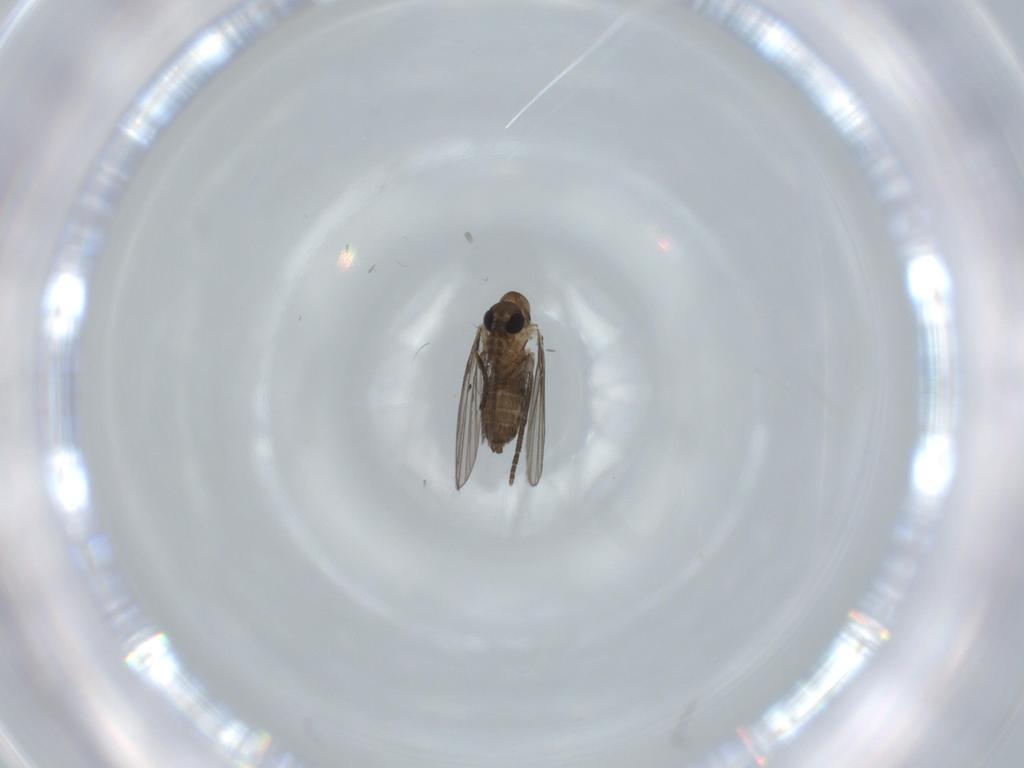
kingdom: Animalia
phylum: Arthropoda
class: Insecta
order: Diptera
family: Psychodidae
